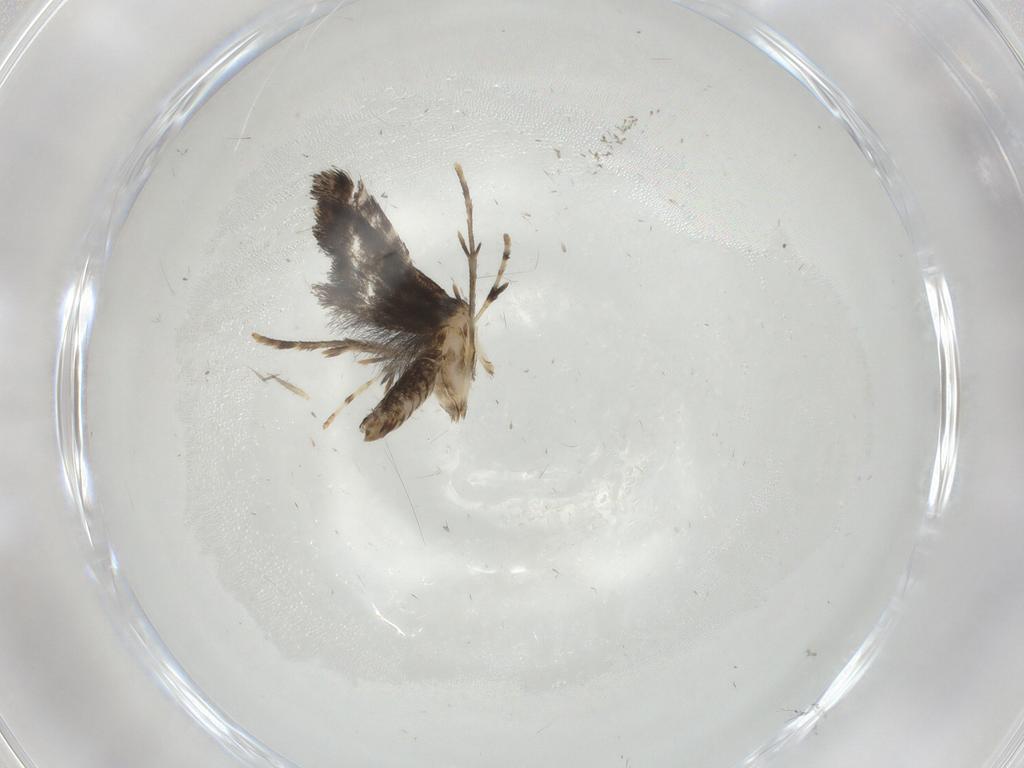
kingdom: Animalia
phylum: Arthropoda
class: Insecta
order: Lepidoptera
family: Gracillariidae
